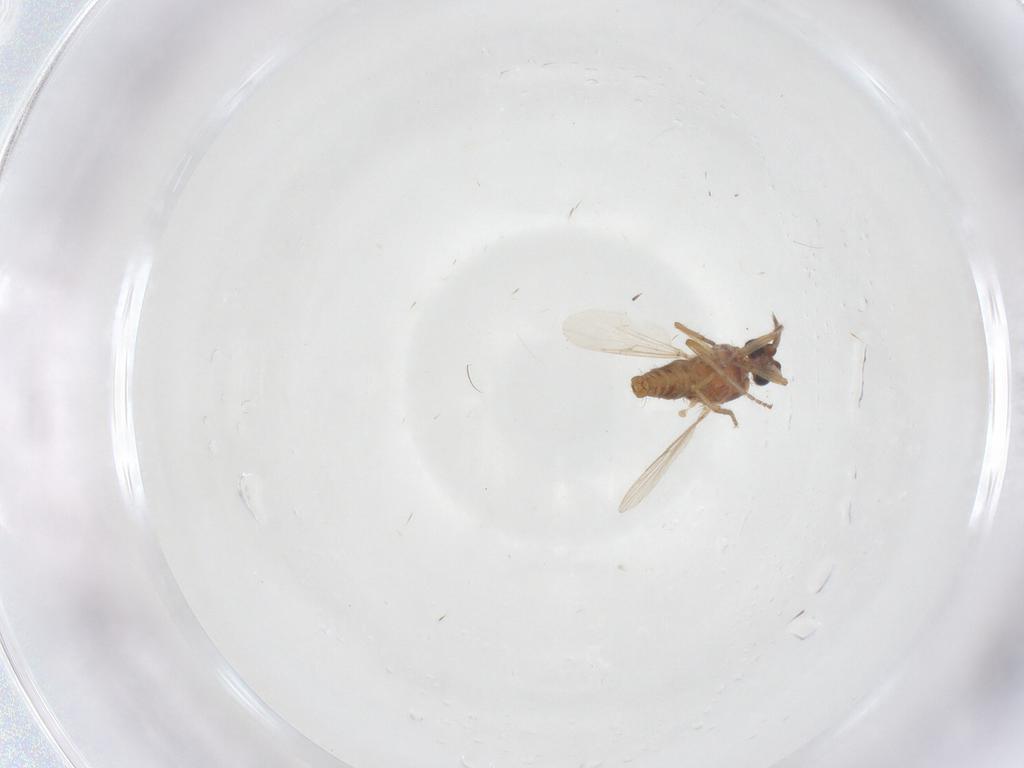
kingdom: Animalia
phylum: Arthropoda
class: Insecta
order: Diptera
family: Ceratopogonidae
